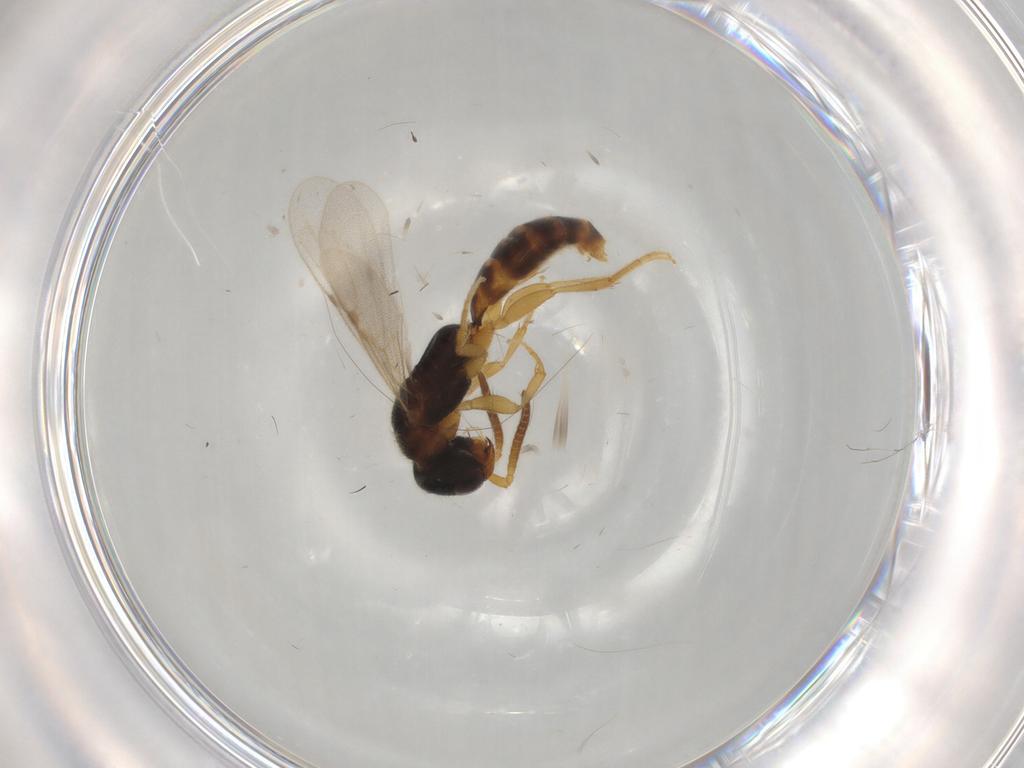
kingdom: Animalia
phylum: Arthropoda
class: Insecta
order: Hymenoptera
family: Formicidae
